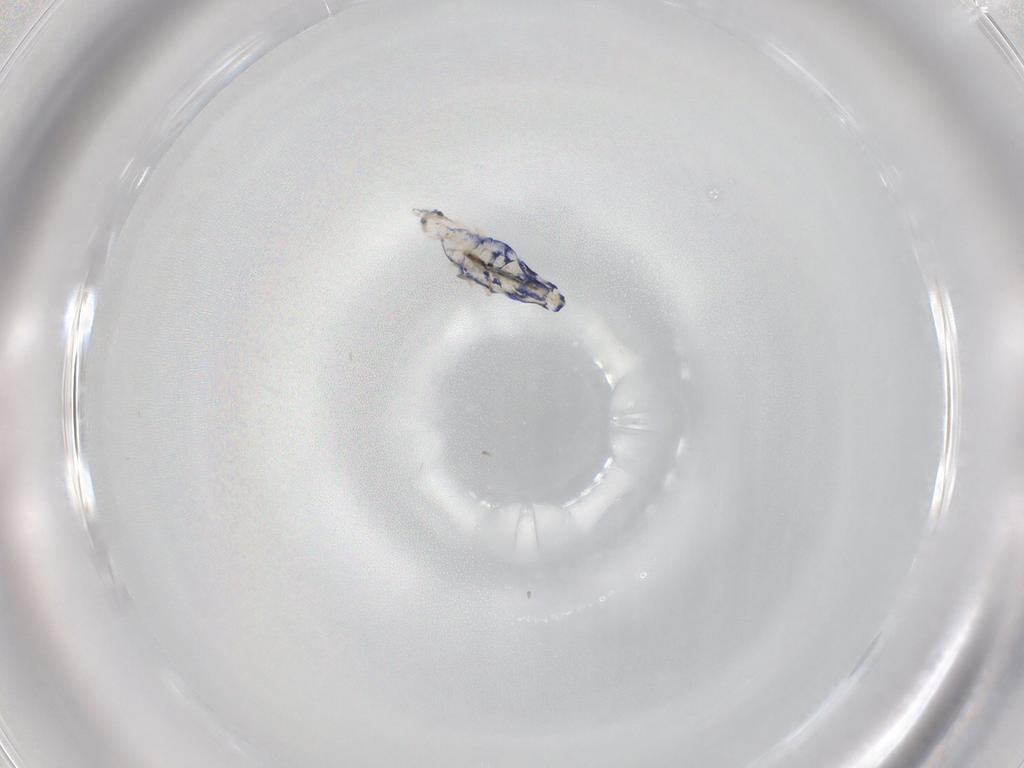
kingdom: Animalia
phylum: Arthropoda
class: Collembola
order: Entomobryomorpha
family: Entomobryidae
